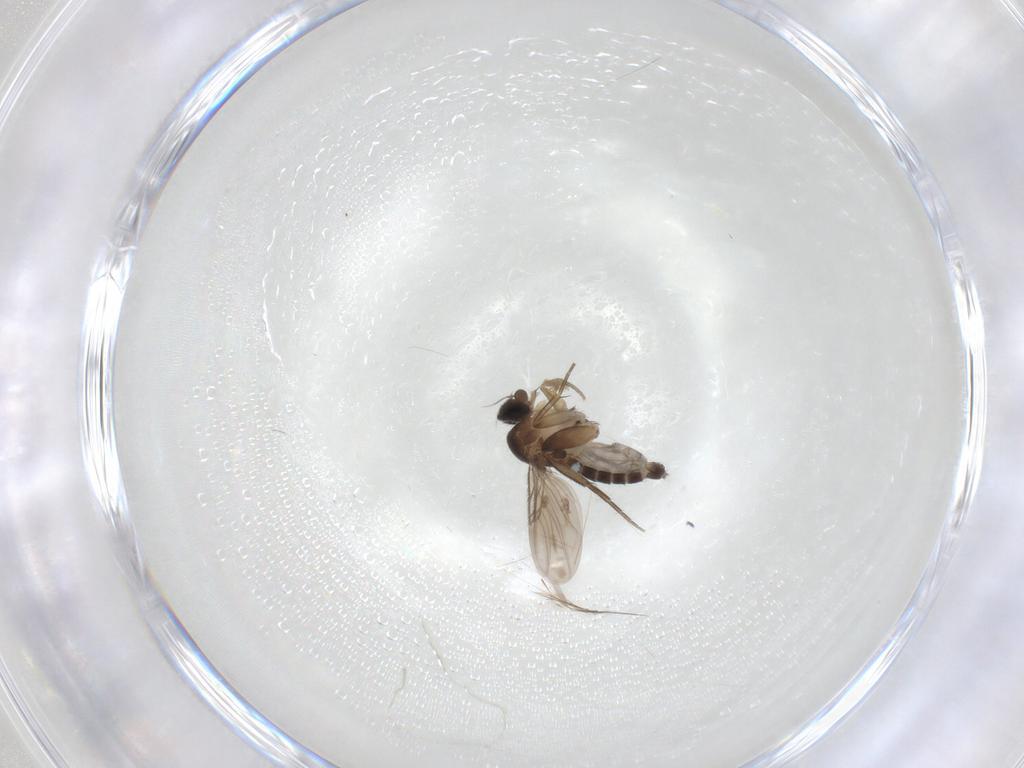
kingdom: Animalia
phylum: Arthropoda
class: Insecta
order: Diptera
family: Phoridae
